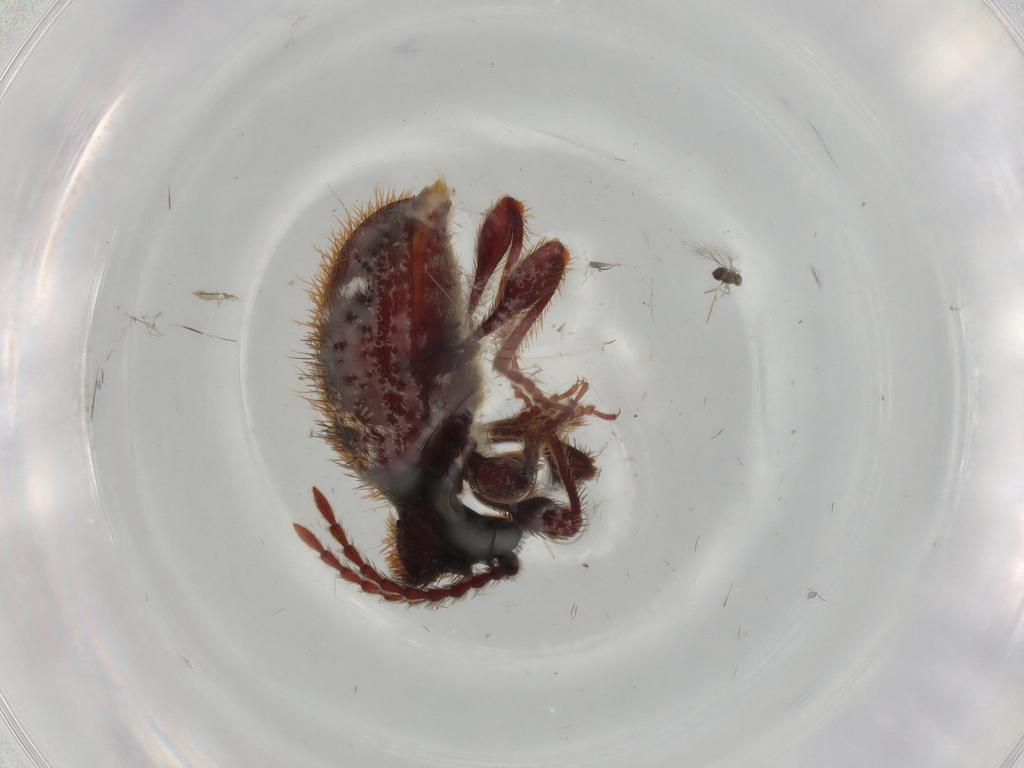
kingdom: Animalia
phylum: Arthropoda
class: Insecta
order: Coleoptera
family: Ptinidae
